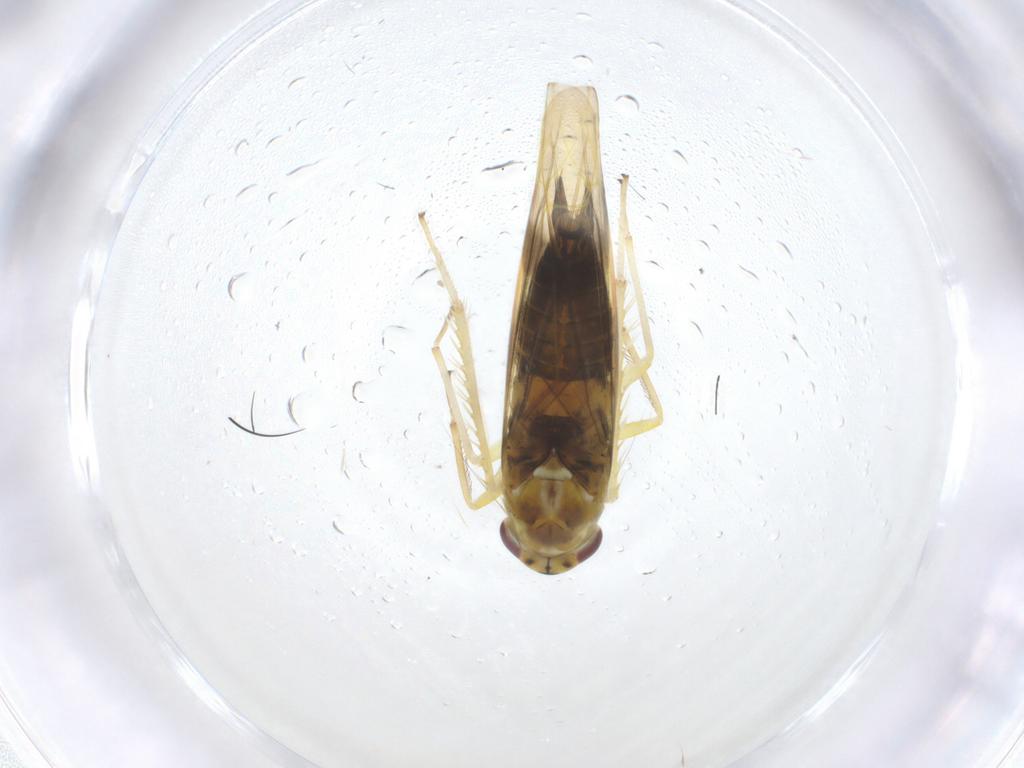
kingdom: Animalia
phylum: Arthropoda
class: Insecta
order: Hemiptera
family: Cicadellidae
